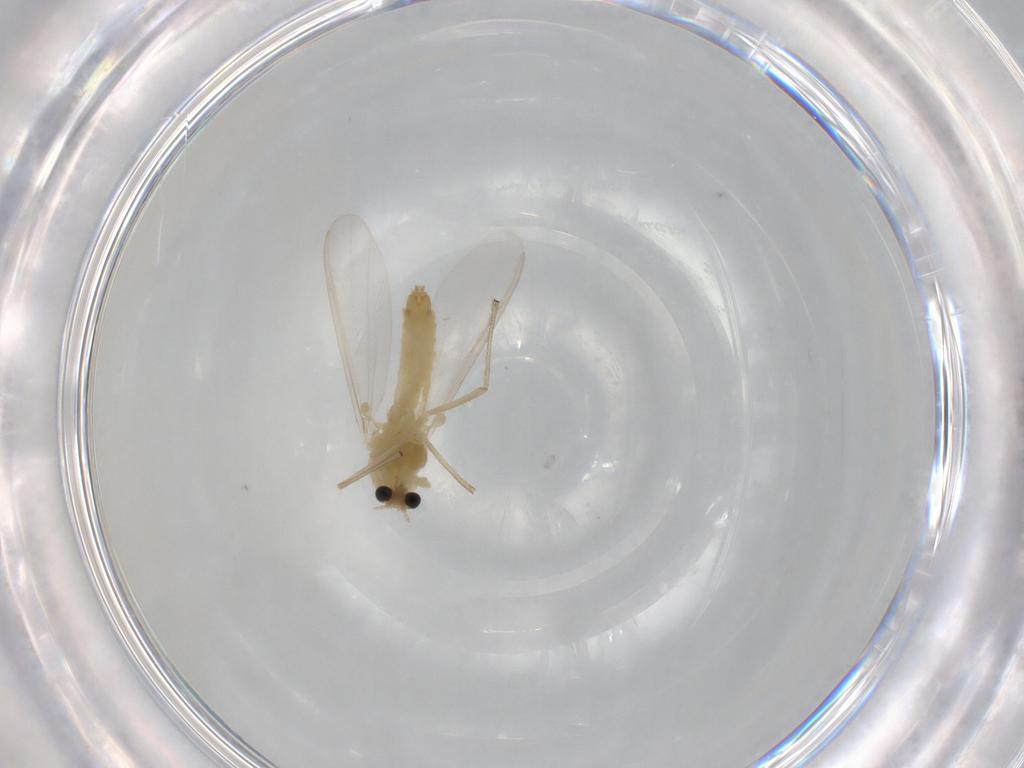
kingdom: Animalia
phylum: Arthropoda
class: Insecta
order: Diptera
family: Chironomidae
